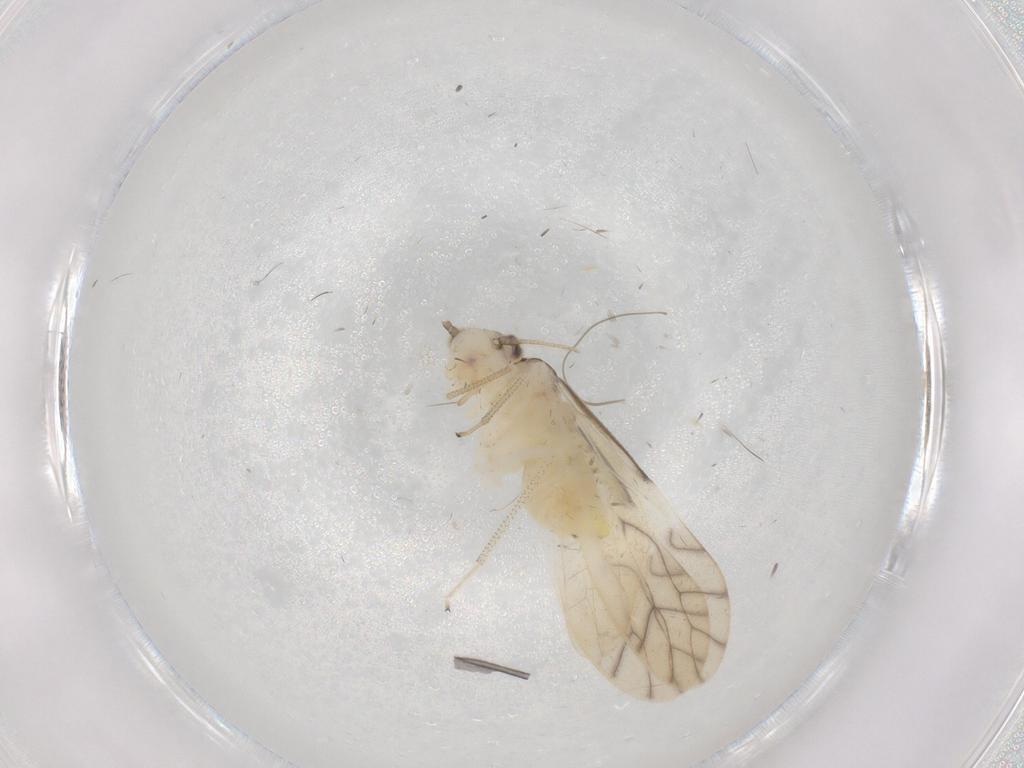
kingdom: Animalia
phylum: Arthropoda
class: Insecta
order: Psocodea
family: Caeciliusidae
